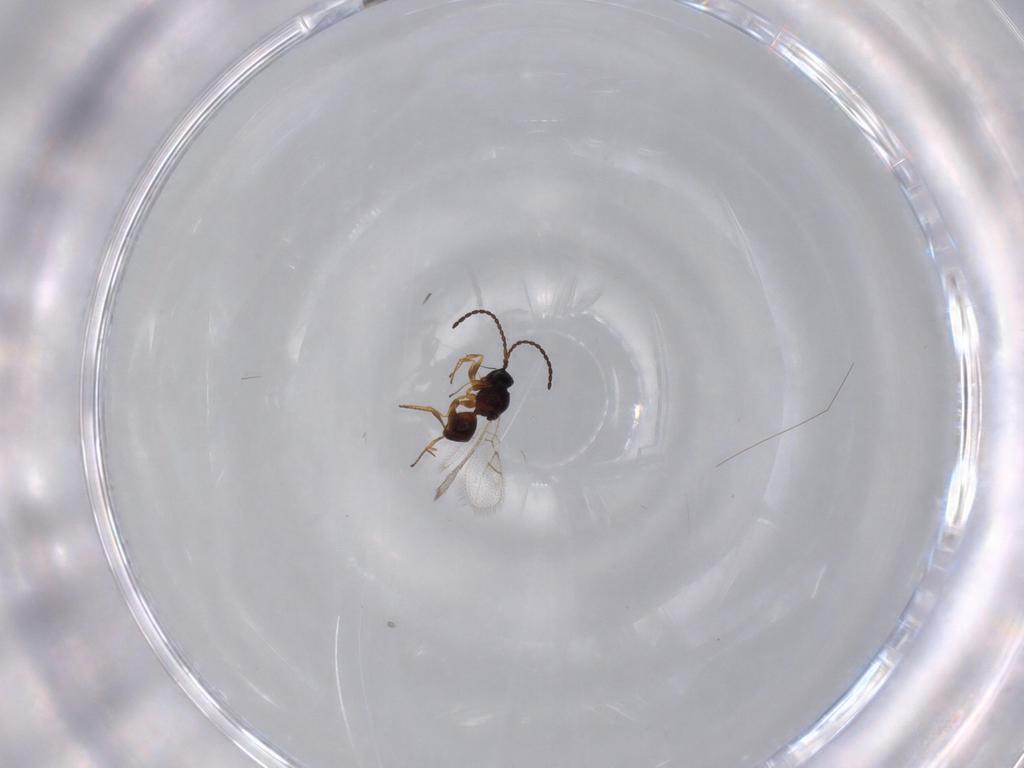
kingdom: Animalia
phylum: Arthropoda
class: Insecta
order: Hymenoptera
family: Figitidae
